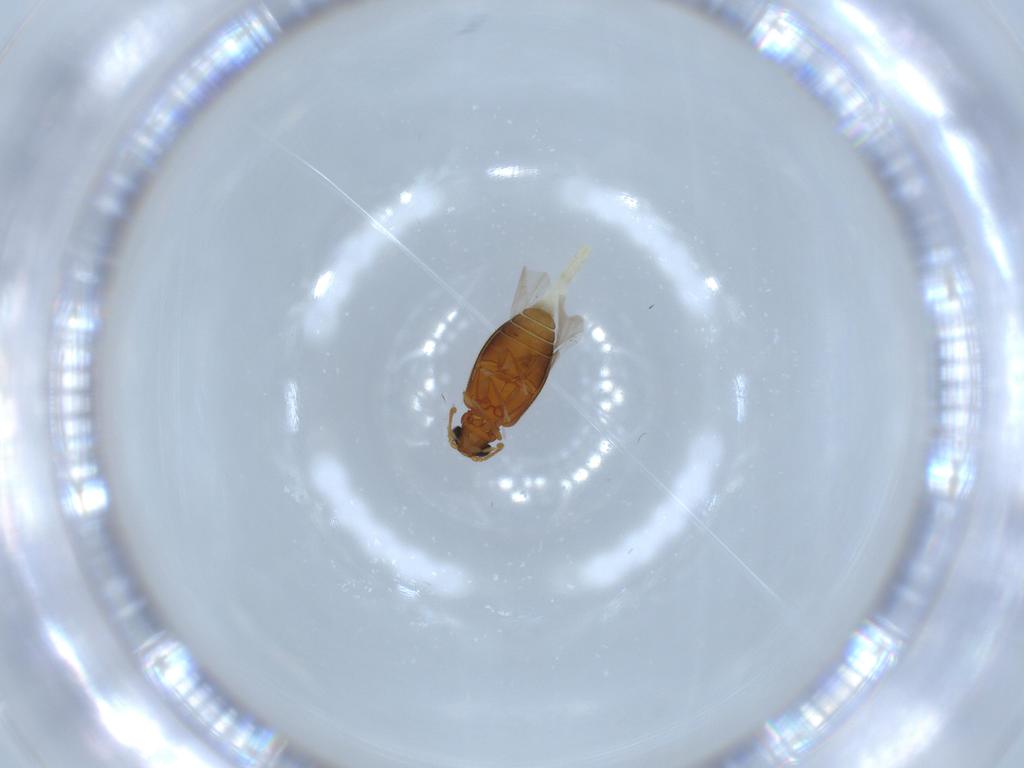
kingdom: Animalia
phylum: Arthropoda
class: Insecta
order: Coleoptera
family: Aderidae
